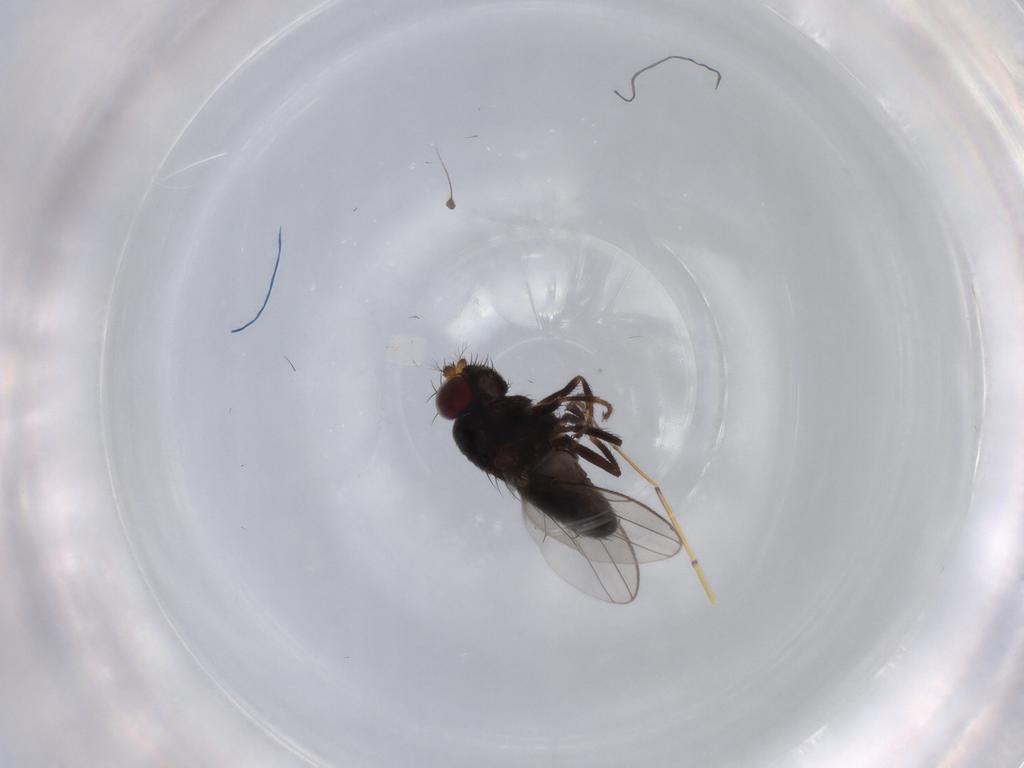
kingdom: Animalia
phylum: Arthropoda
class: Insecta
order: Diptera
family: Dolichopodidae
